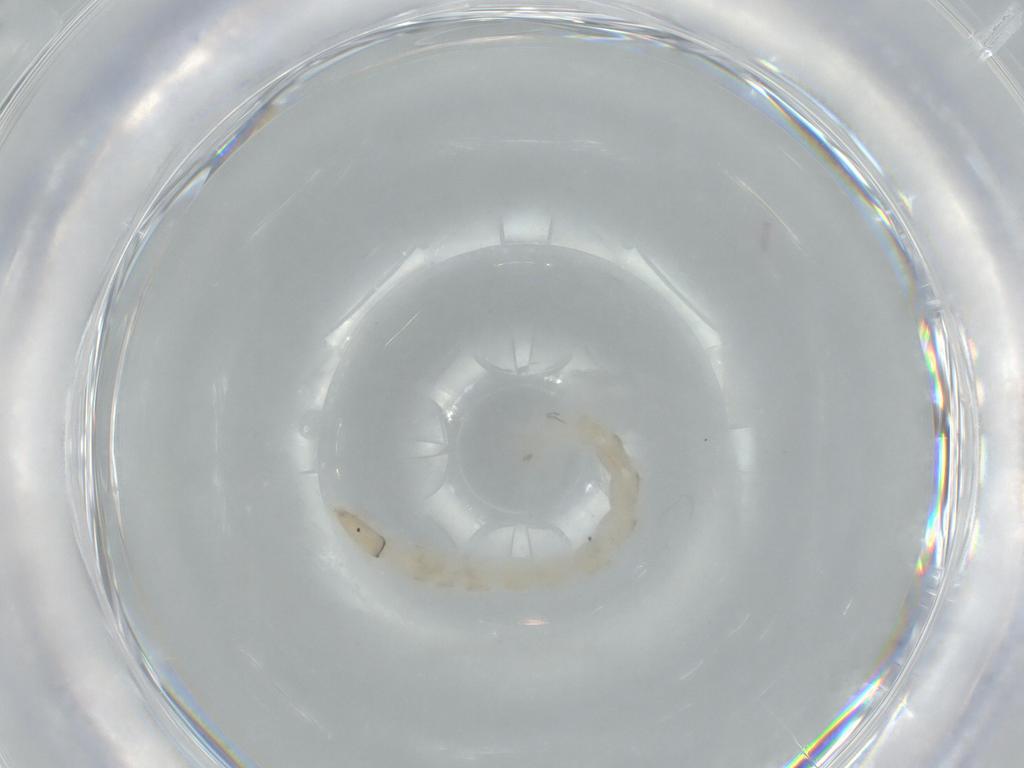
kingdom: Animalia
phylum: Arthropoda
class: Insecta
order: Diptera
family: Chironomidae
